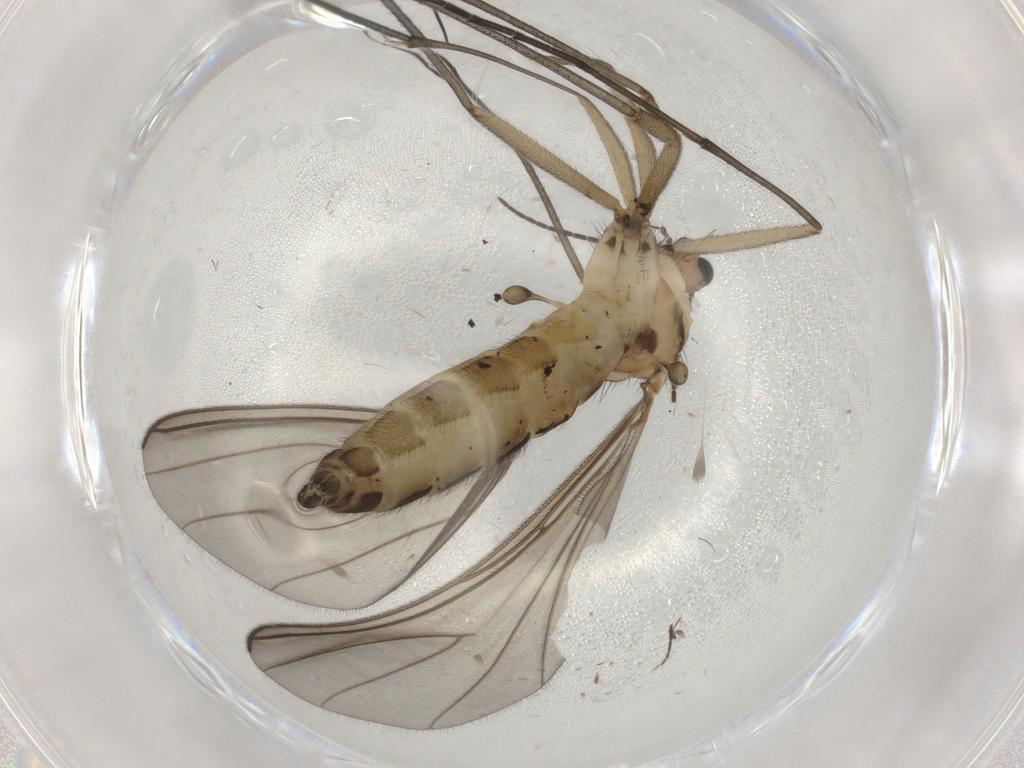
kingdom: Animalia
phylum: Arthropoda
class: Insecta
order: Diptera
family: Sciaridae
